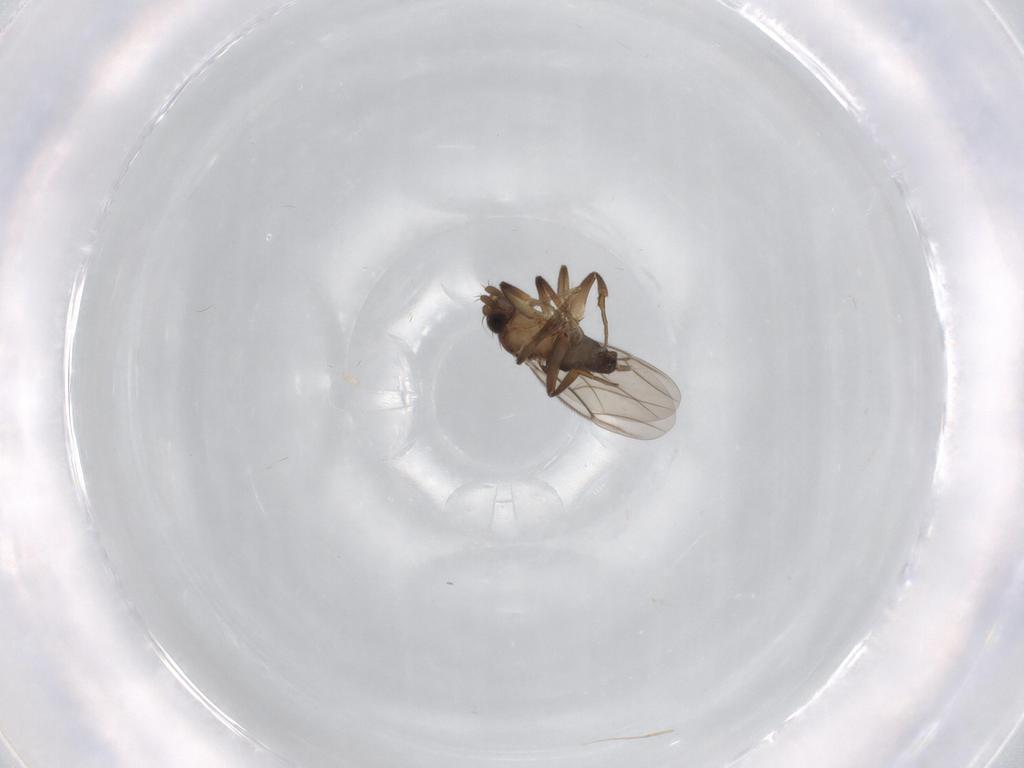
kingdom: Animalia
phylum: Arthropoda
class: Insecta
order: Diptera
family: Chironomidae
